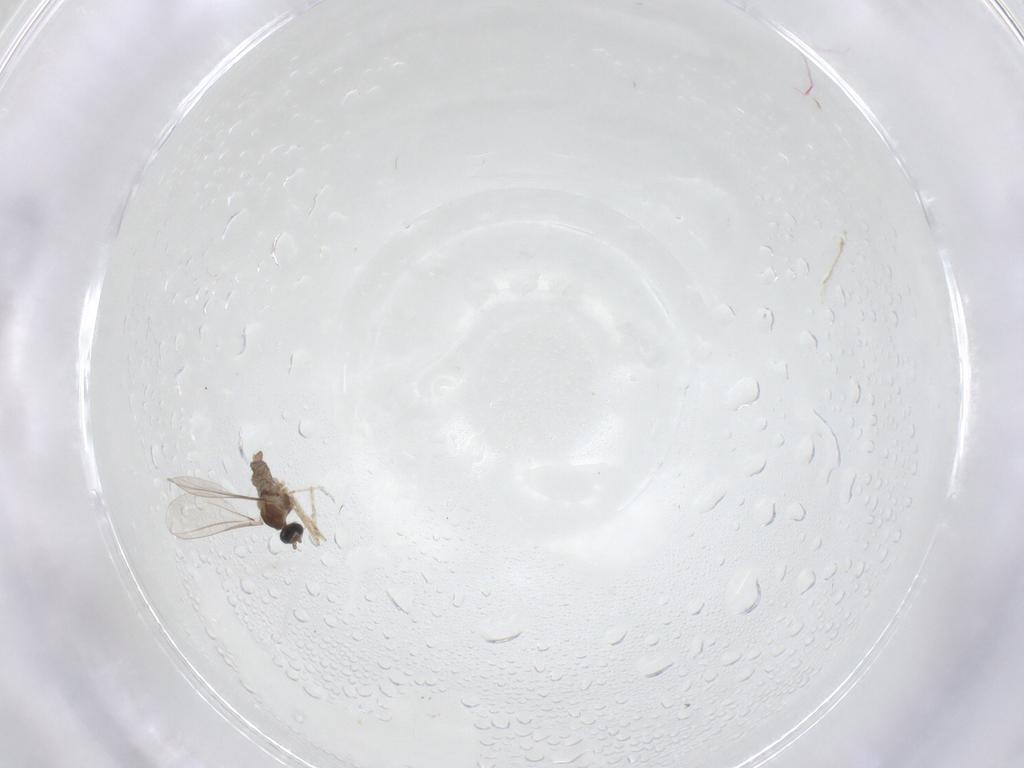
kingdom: Animalia
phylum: Arthropoda
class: Insecta
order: Diptera
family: Cecidomyiidae
